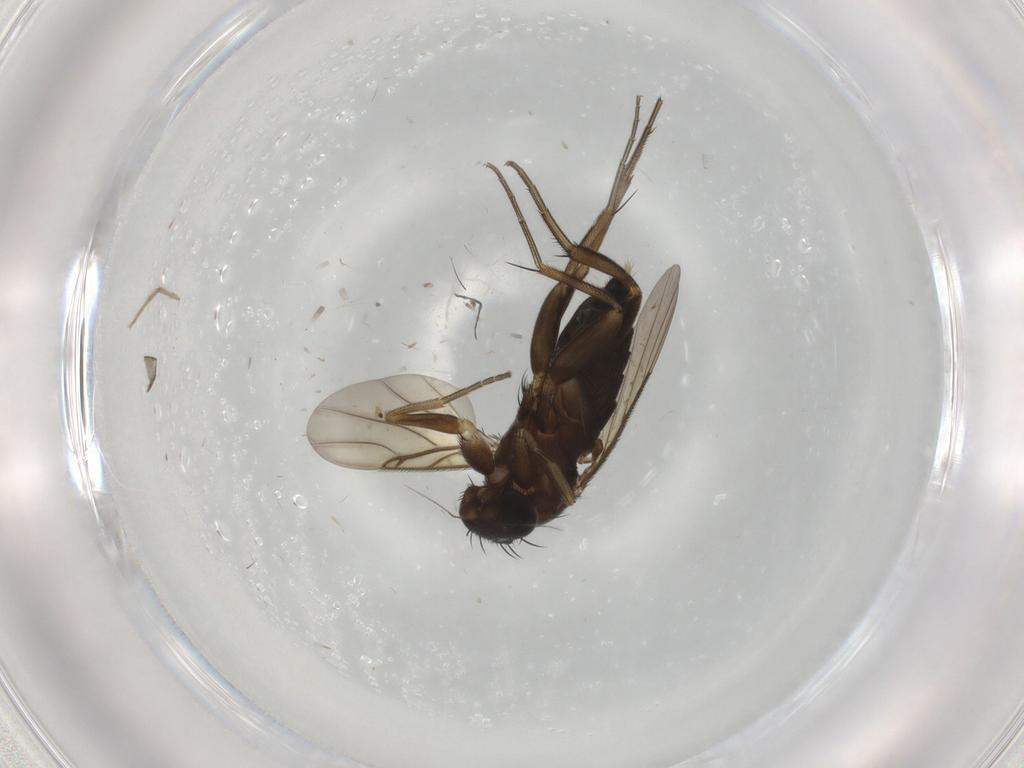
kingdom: Animalia
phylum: Arthropoda
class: Insecta
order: Diptera
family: Phoridae
